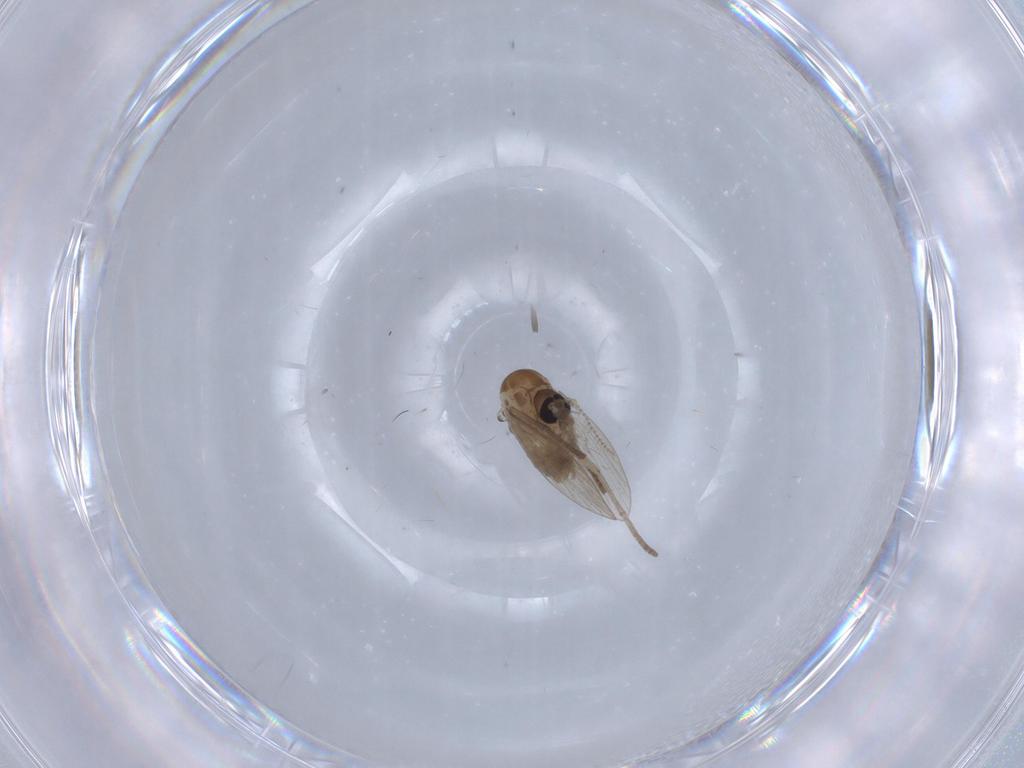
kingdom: Animalia
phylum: Arthropoda
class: Insecta
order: Diptera
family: Psychodidae
